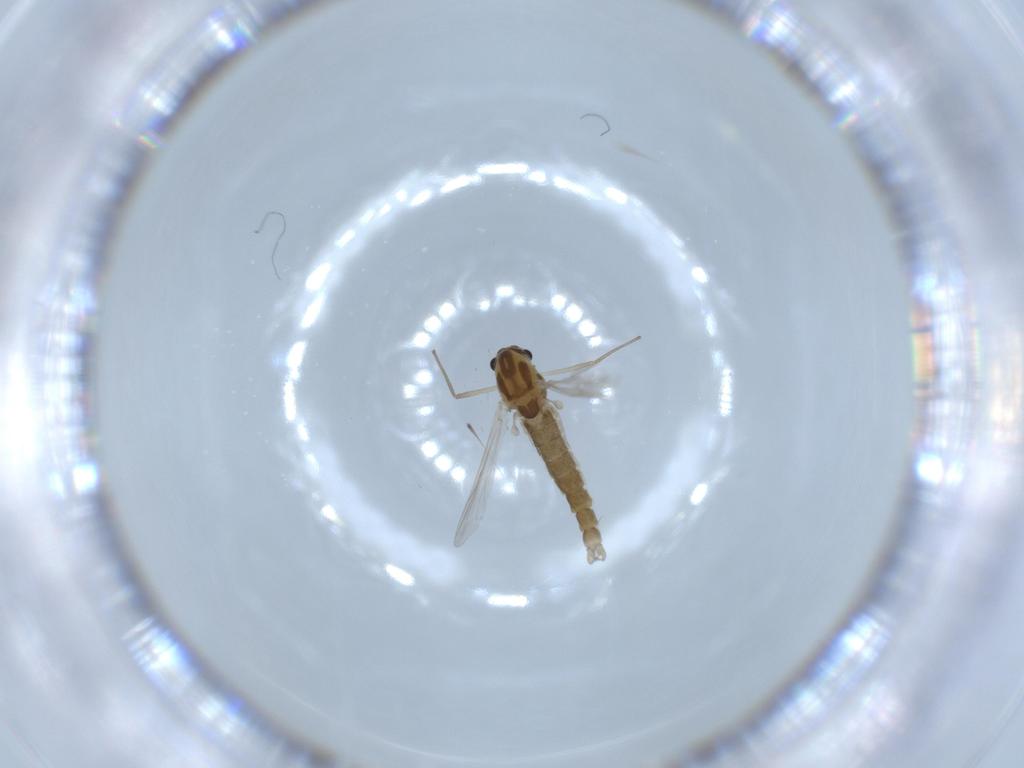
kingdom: Animalia
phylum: Arthropoda
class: Insecta
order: Diptera
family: Chironomidae
